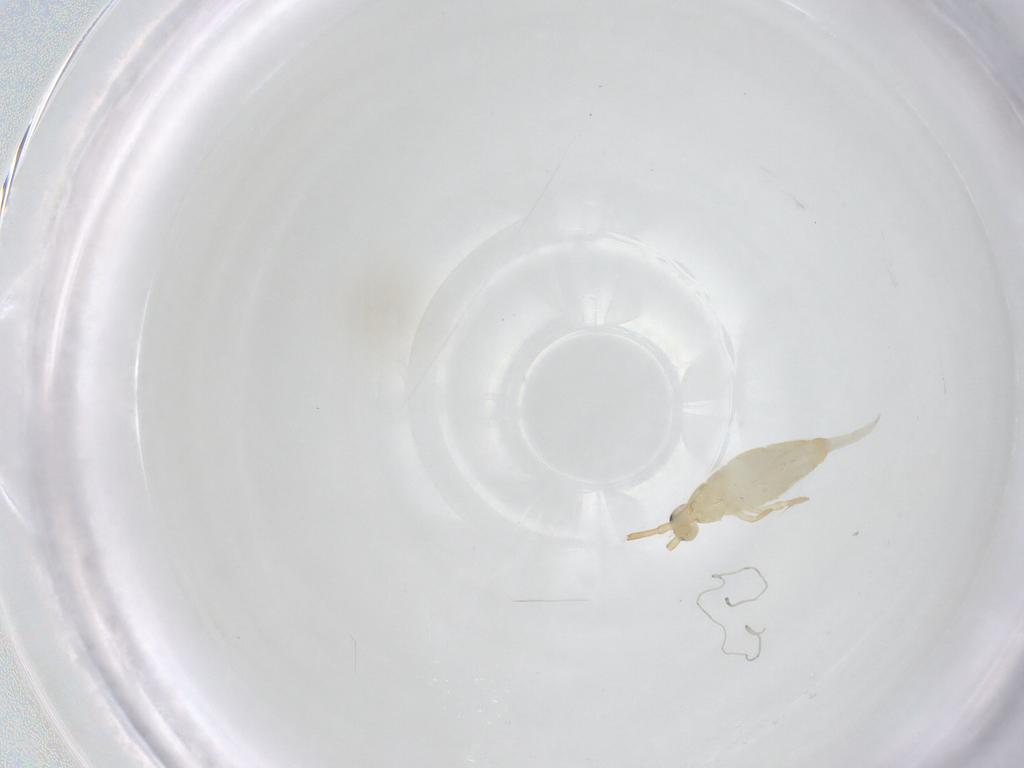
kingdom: Animalia
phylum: Arthropoda
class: Collembola
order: Entomobryomorpha
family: Entomobryidae
